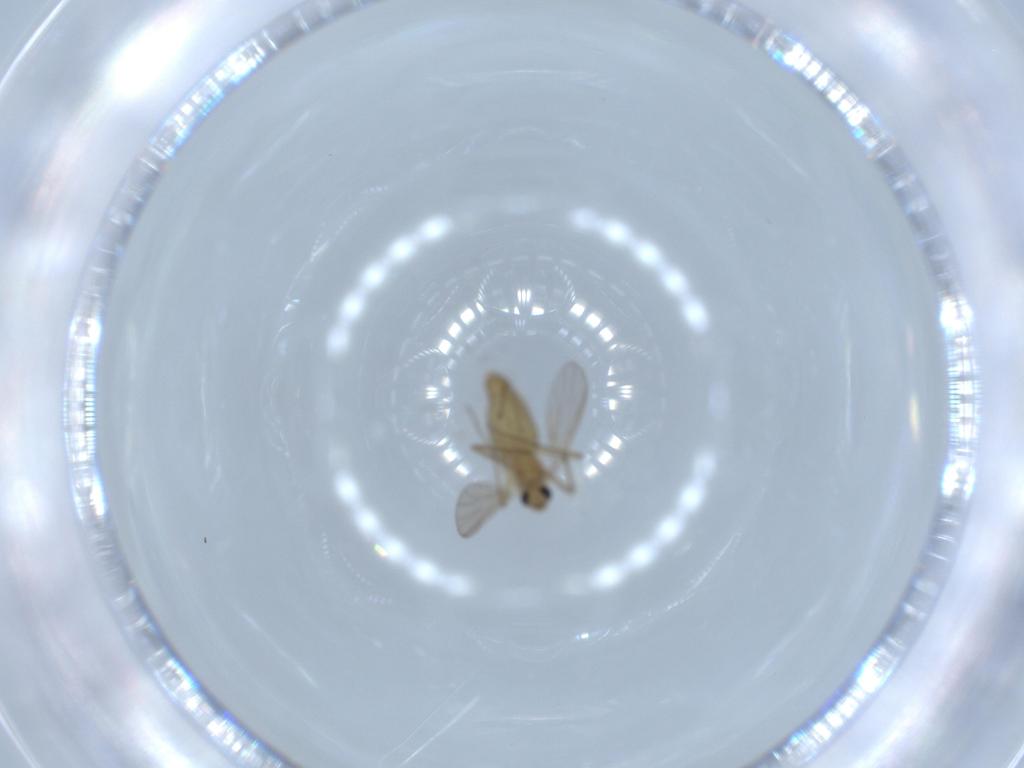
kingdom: Animalia
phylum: Arthropoda
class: Insecta
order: Diptera
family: Chironomidae
